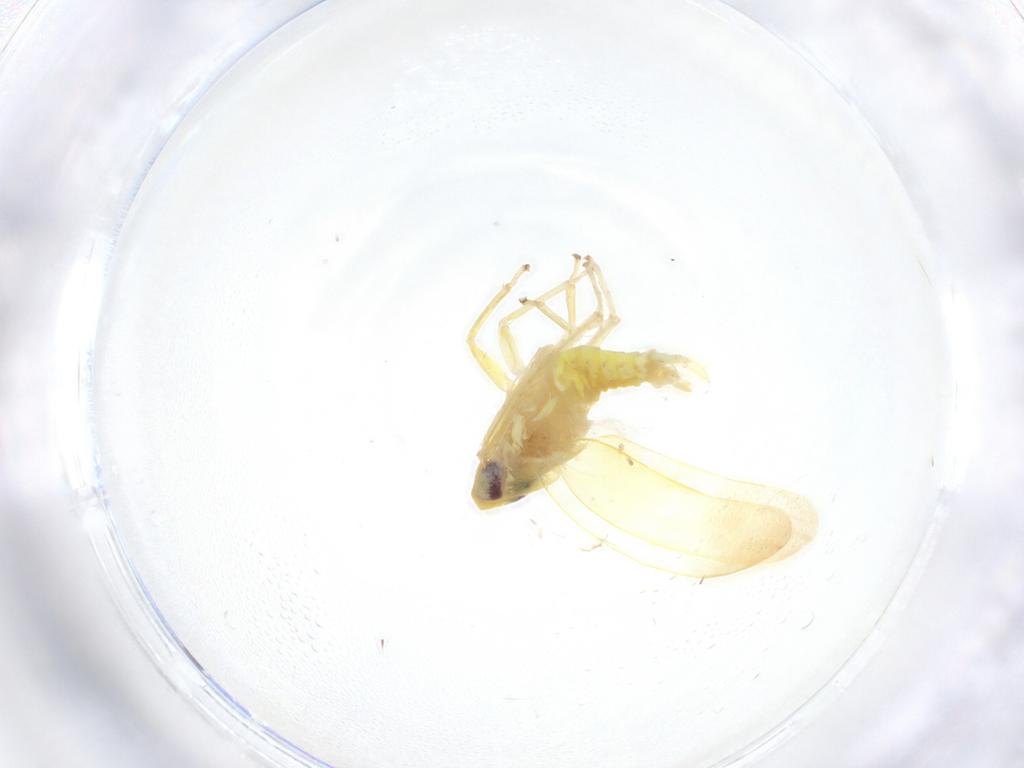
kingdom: Animalia
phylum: Arthropoda
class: Insecta
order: Hemiptera
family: Cicadellidae
